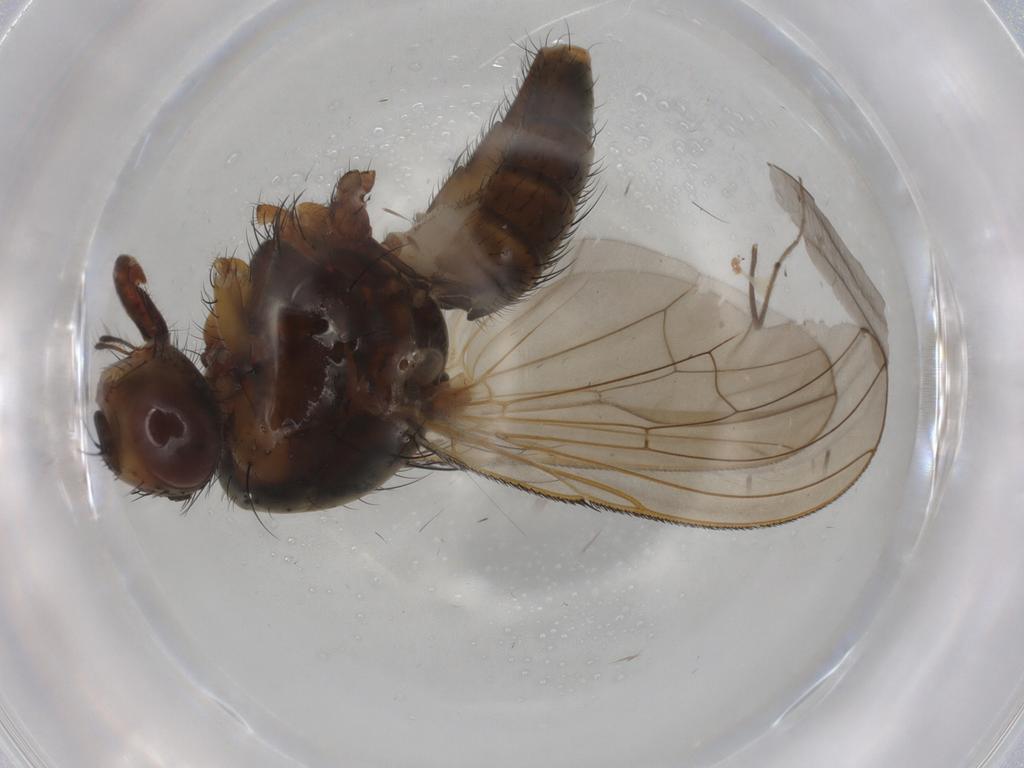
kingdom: Animalia
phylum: Arthropoda
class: Insecta
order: Diptera
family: Anthomyiidae
